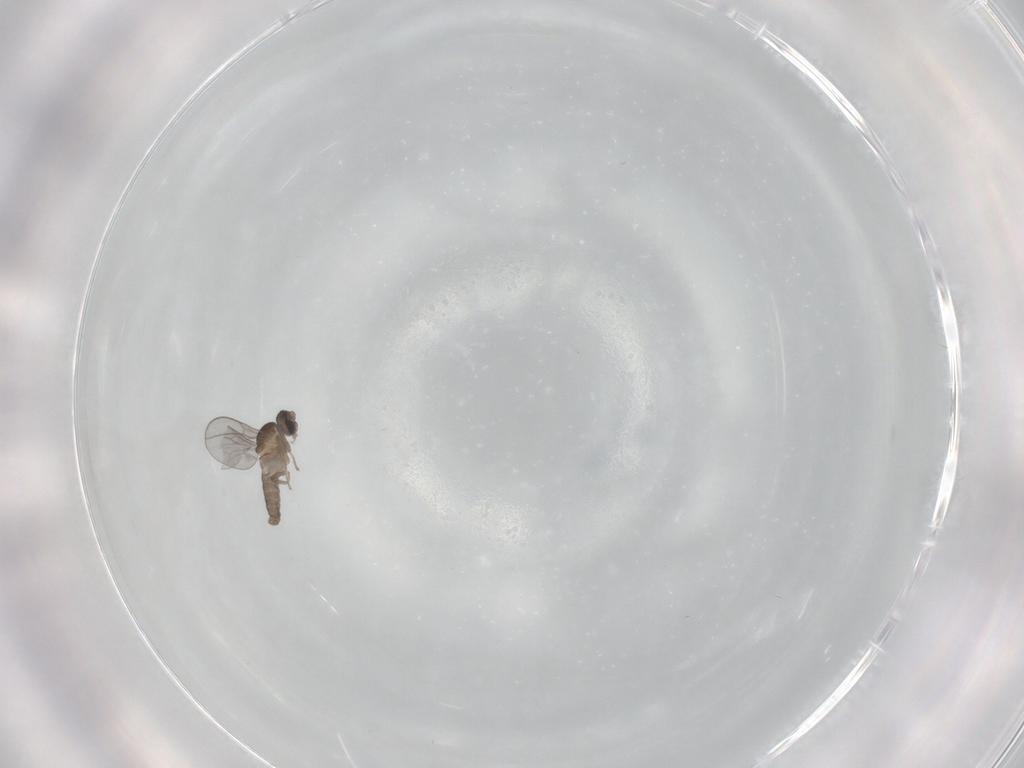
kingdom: Animalia
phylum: Arthropoda
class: Insecta
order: Diptera
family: Cecidomyiidae
